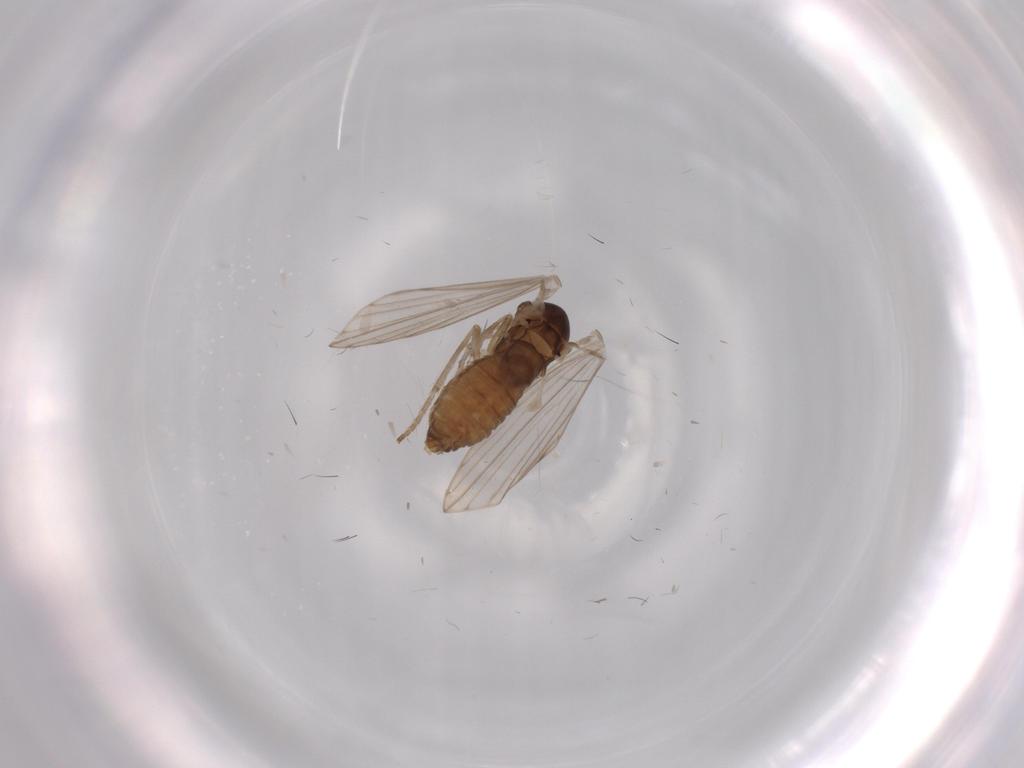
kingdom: Animalia
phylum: Arthropoda
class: Insecta
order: Diptera
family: Psychodidae
